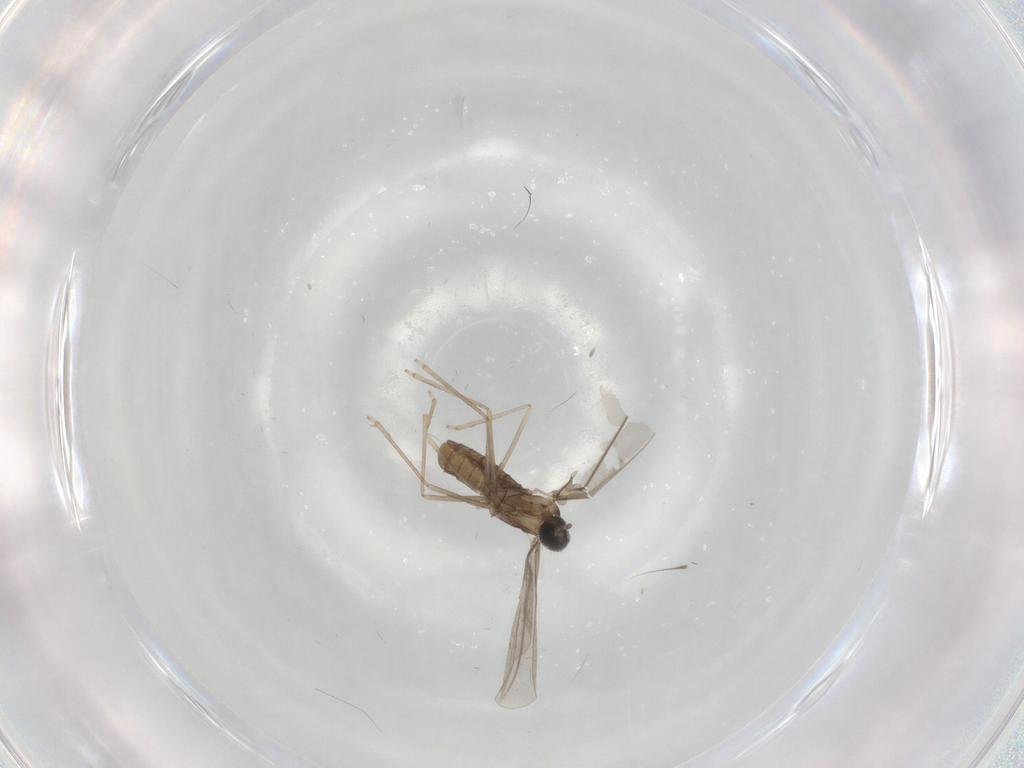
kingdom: Animalia
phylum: Arthropoda
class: Insecta
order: Diptera
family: Cecidomyiidae
